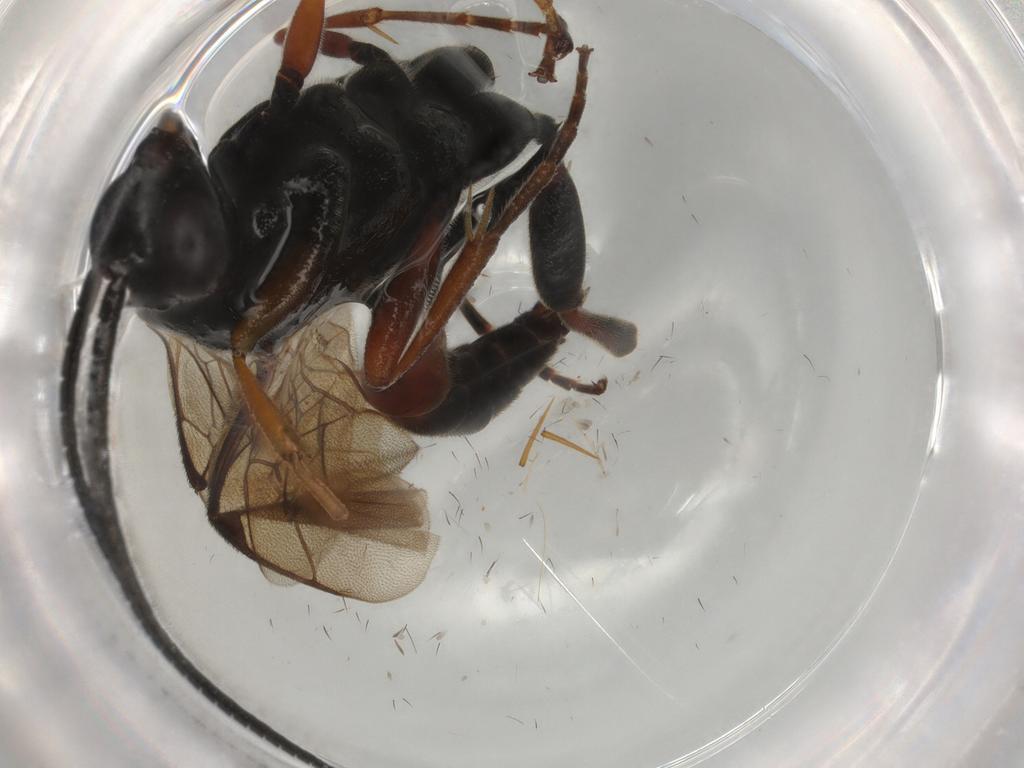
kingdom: Animalia
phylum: Arthropoda
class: Insecta
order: Hymenoptera
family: Ichneumonidae
